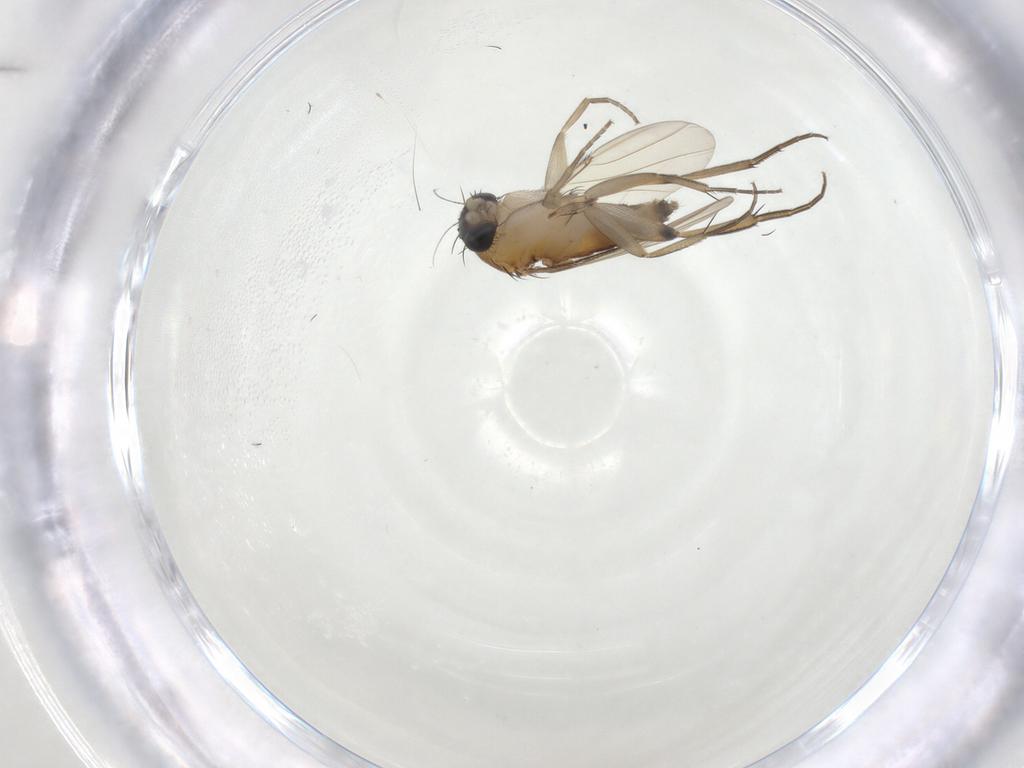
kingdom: Animalia
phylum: Arthropoda
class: Insecta
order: Diptera
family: Phoridae
